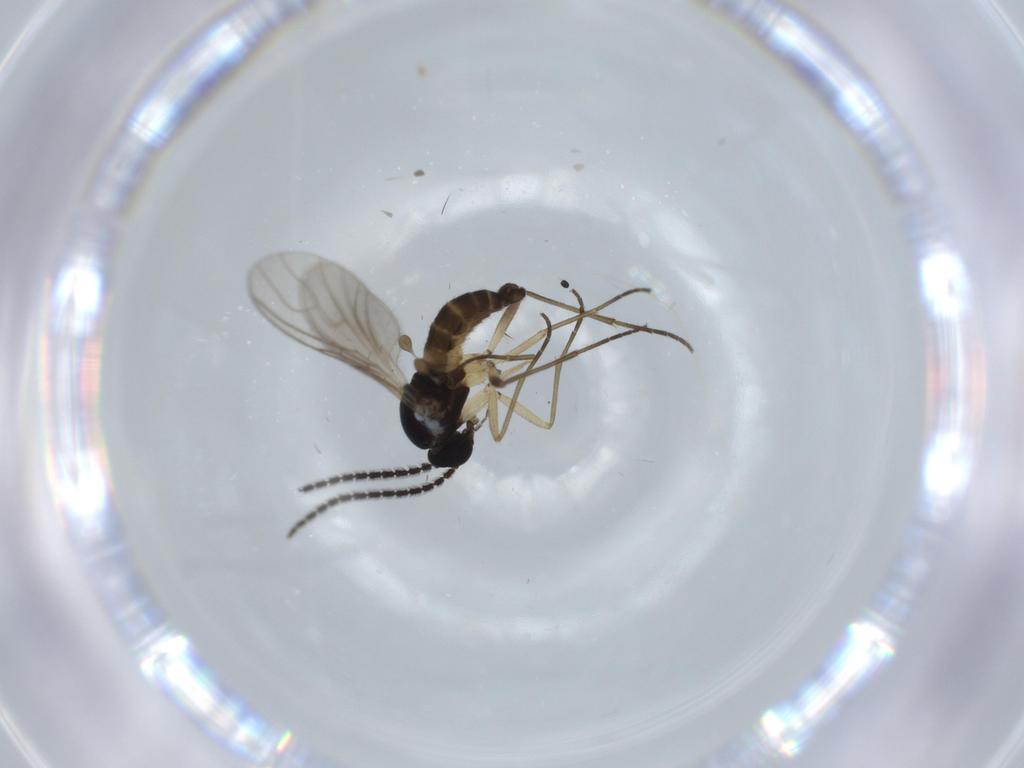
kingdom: Animalia
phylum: Arthropoda
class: Insecta
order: Diptera
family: Sciaridae
